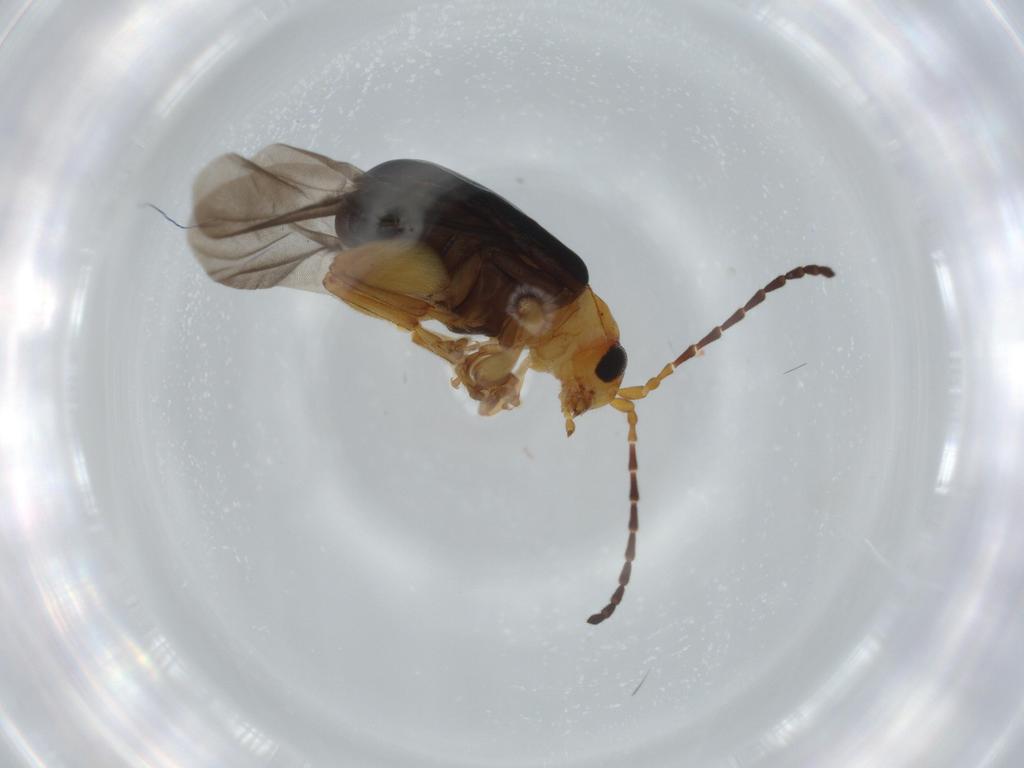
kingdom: Animalia
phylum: Arthropoda
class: Insecta
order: Coleoptera
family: Chrysomelidae
